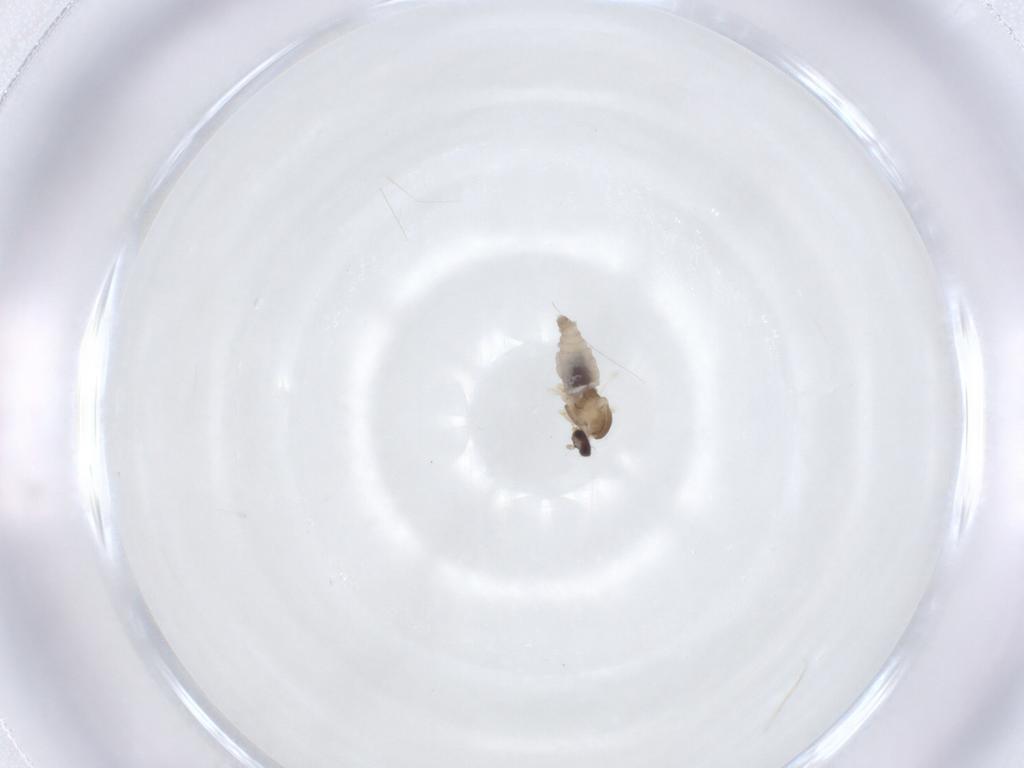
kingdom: Animalia
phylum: Arthropoda
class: Insecta
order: Diptera
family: Cecidomyiidae
